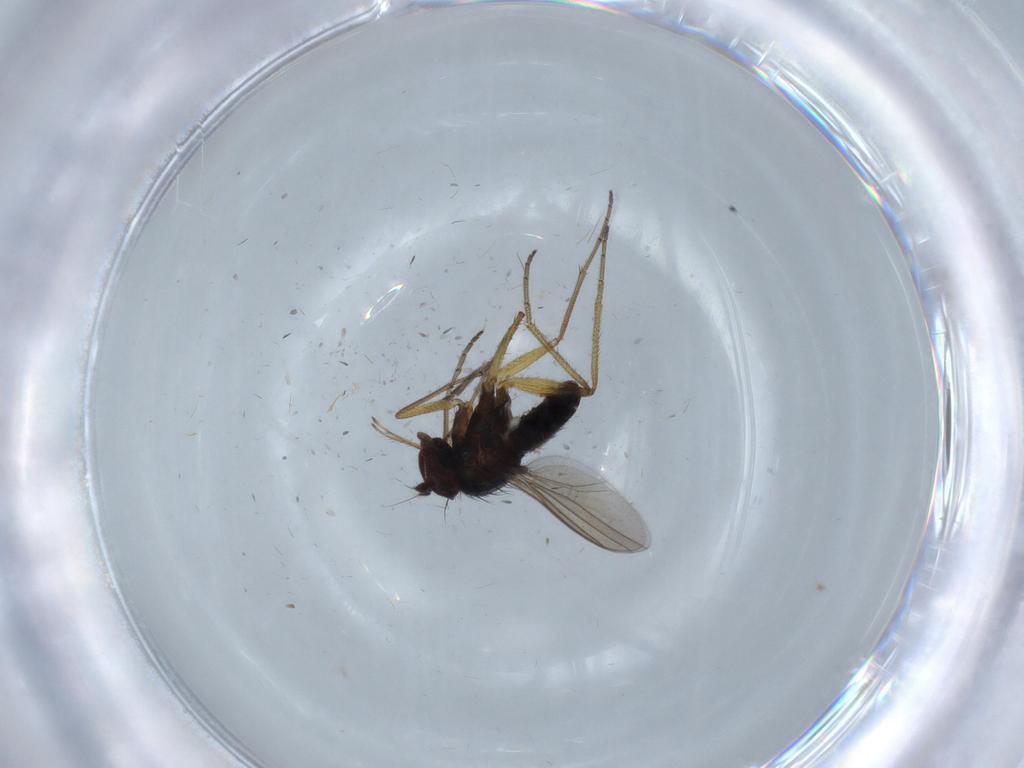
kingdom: Animalia
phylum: Arthropoda
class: Insecta
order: Diptera
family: Dolichopodidae
